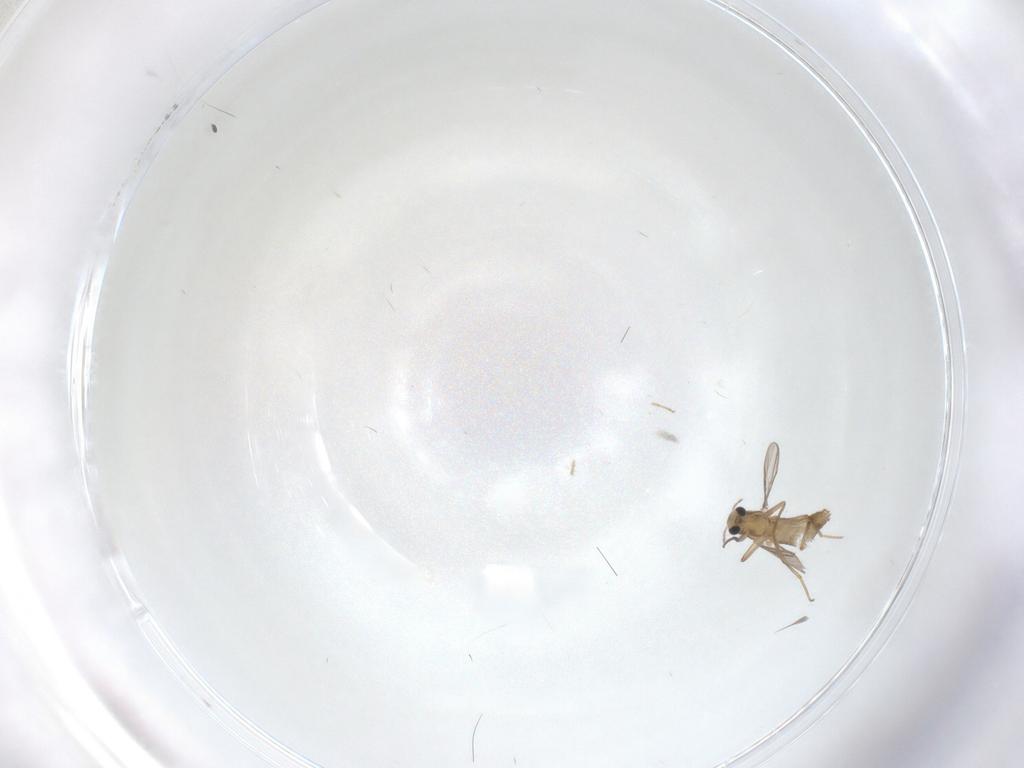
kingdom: Animalia
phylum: Arthropoda
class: Insecta
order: Diptera
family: Chironomidae
